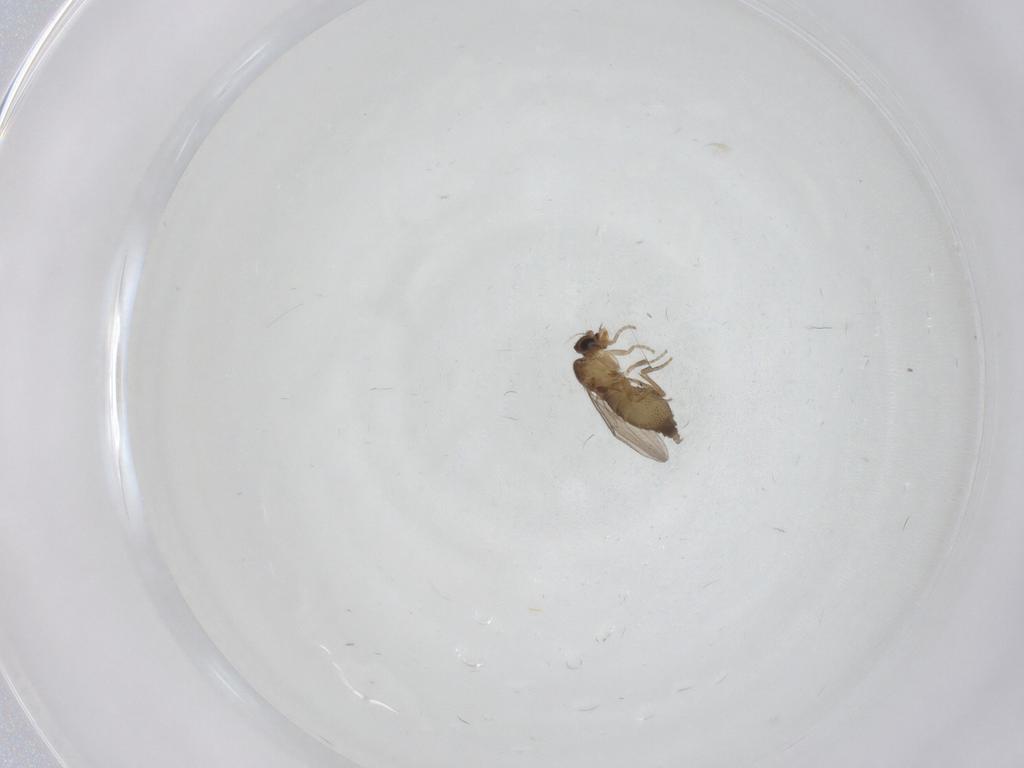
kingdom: Animalia
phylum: Arthropoda
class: Insecta
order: Diptera
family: Phoridae
